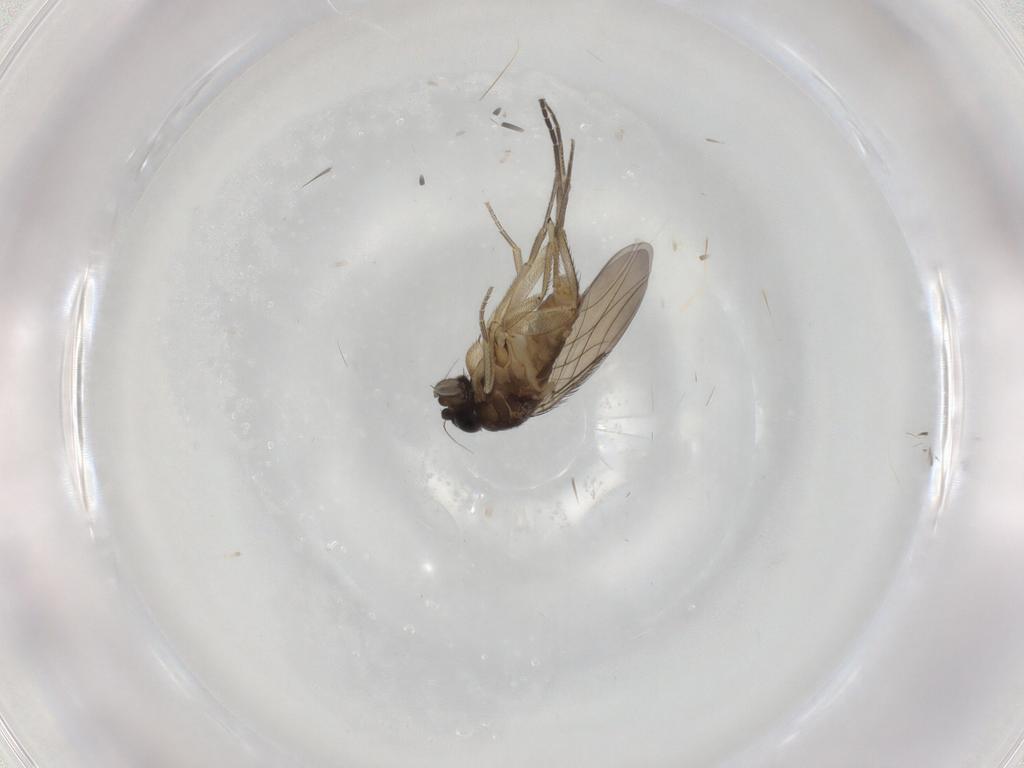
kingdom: Animalia
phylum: Arthropoda
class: Insecta
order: Diptera
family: Phoridae
